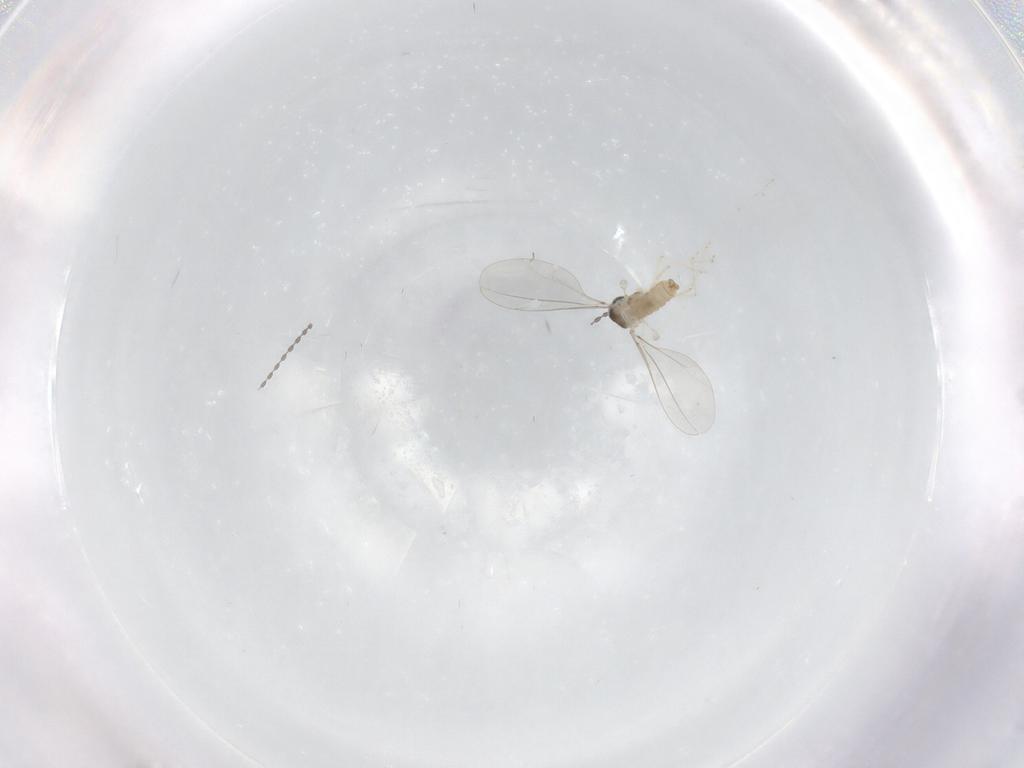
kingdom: Animalia
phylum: Arthropoda
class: Insecta
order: Diptera
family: Cecidomyiidae
